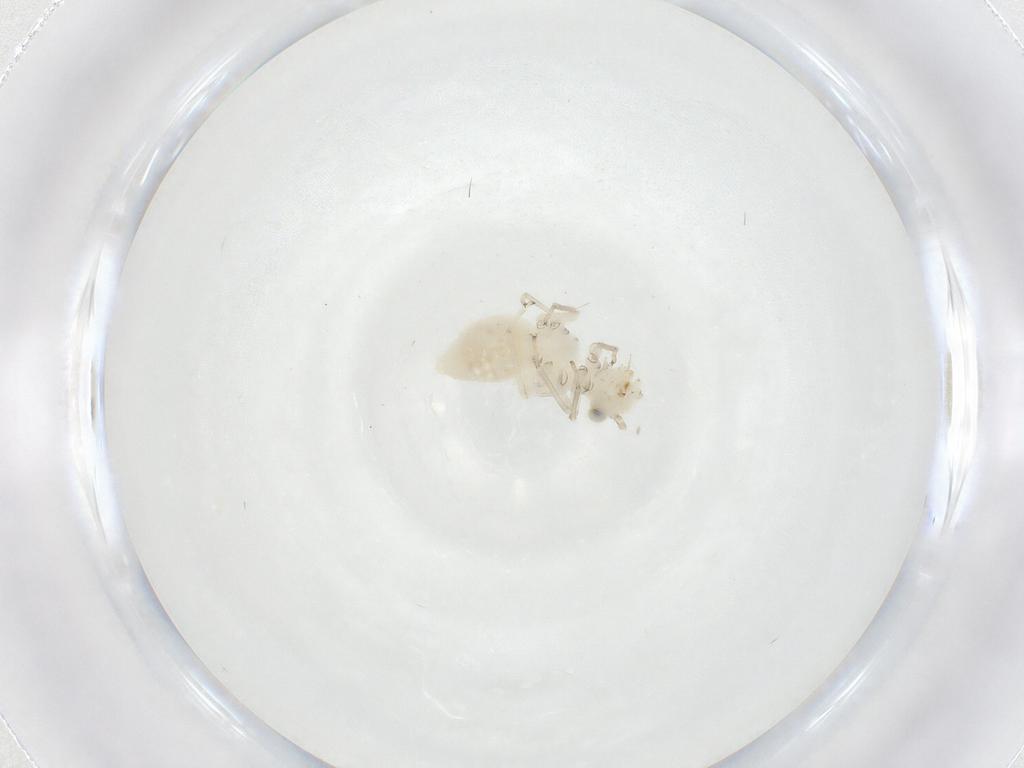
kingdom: Animalia
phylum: Arthropoda
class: Insecta
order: Psocodea
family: Caeciliusidae
